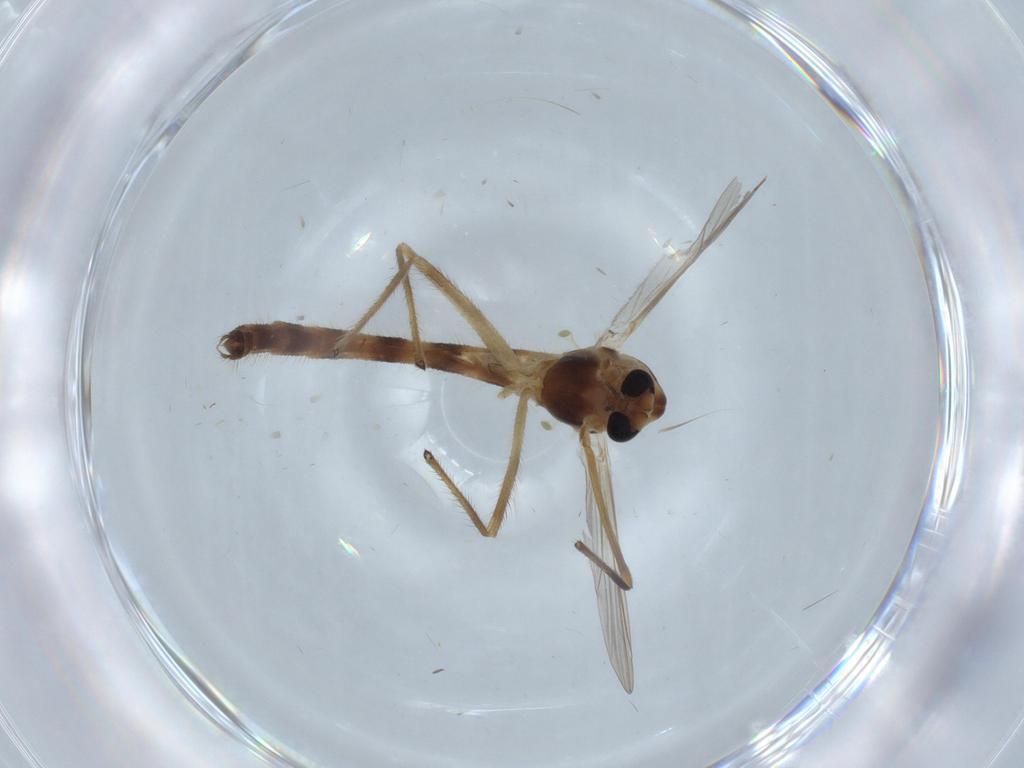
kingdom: Animalia
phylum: Arthropoda
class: Insecta
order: Diptera
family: Chironomidae
